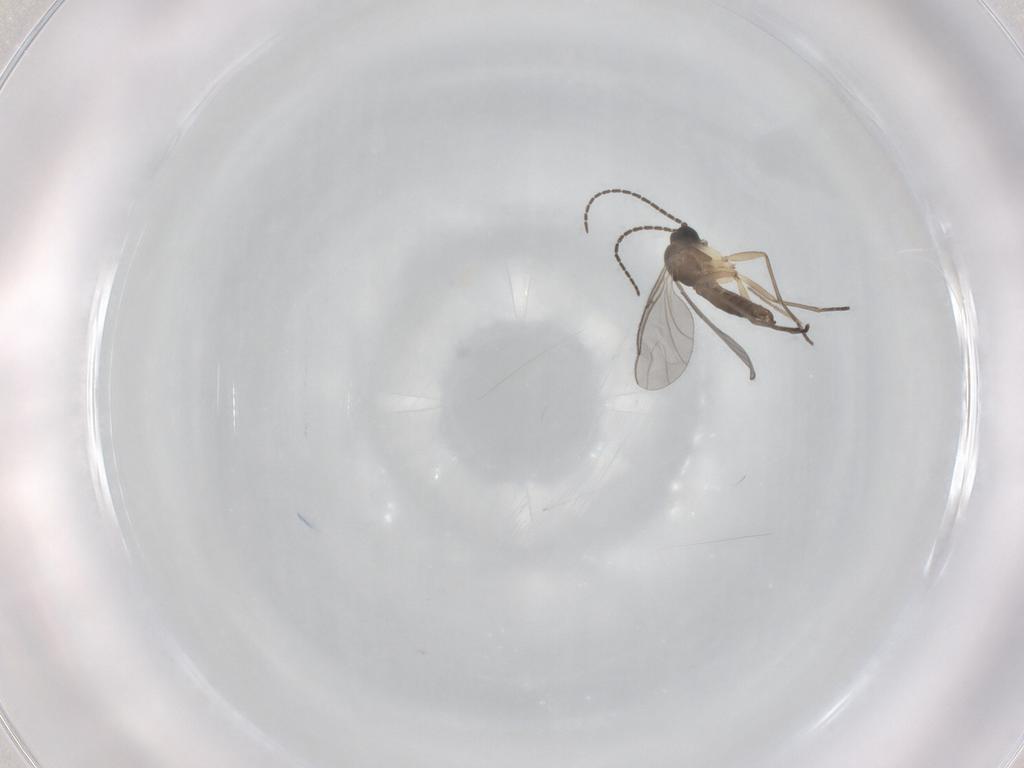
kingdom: Animalia
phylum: Arthropoda
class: Insecta
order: Diptera
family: Sciaridae
